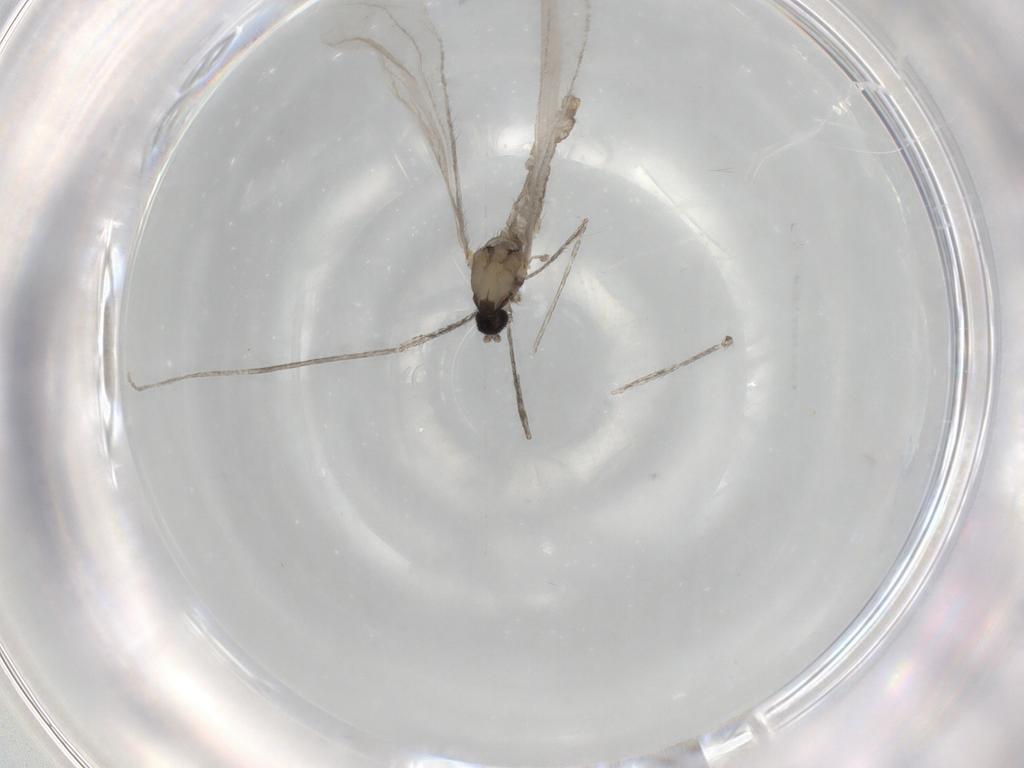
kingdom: Animalia
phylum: Arthropoda
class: Insecta
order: Diptera
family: Cecidomyiidae
